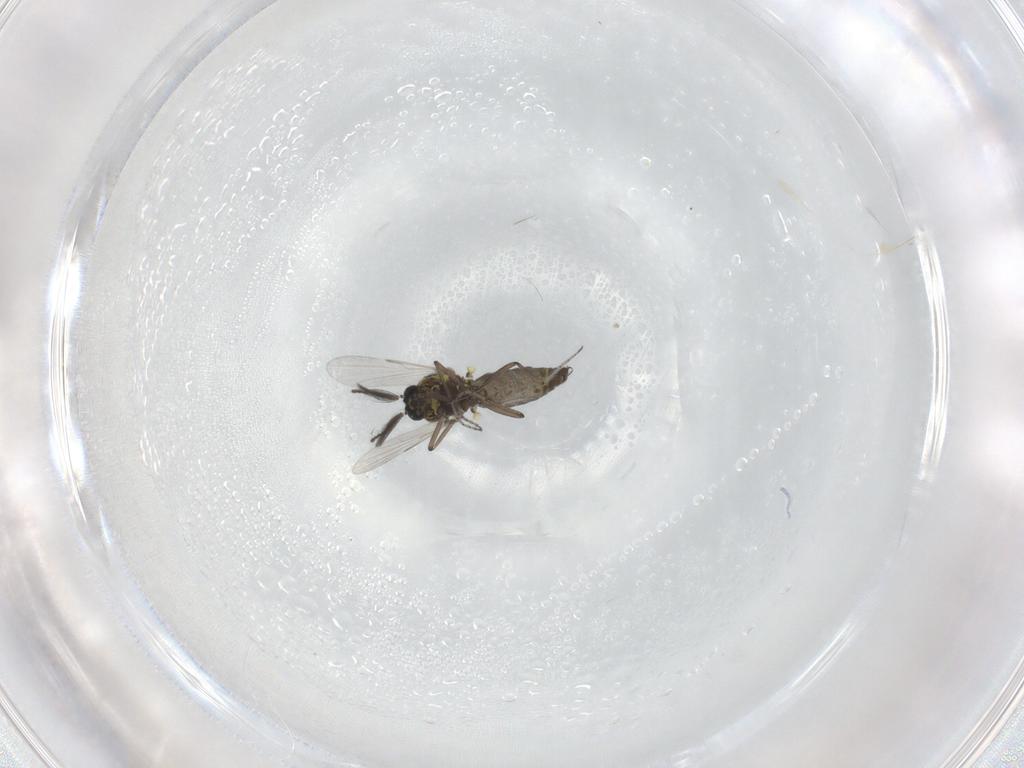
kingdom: Animalia
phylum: Arthropoda
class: Insecta
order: Diptera
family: Ceratopogonidae
